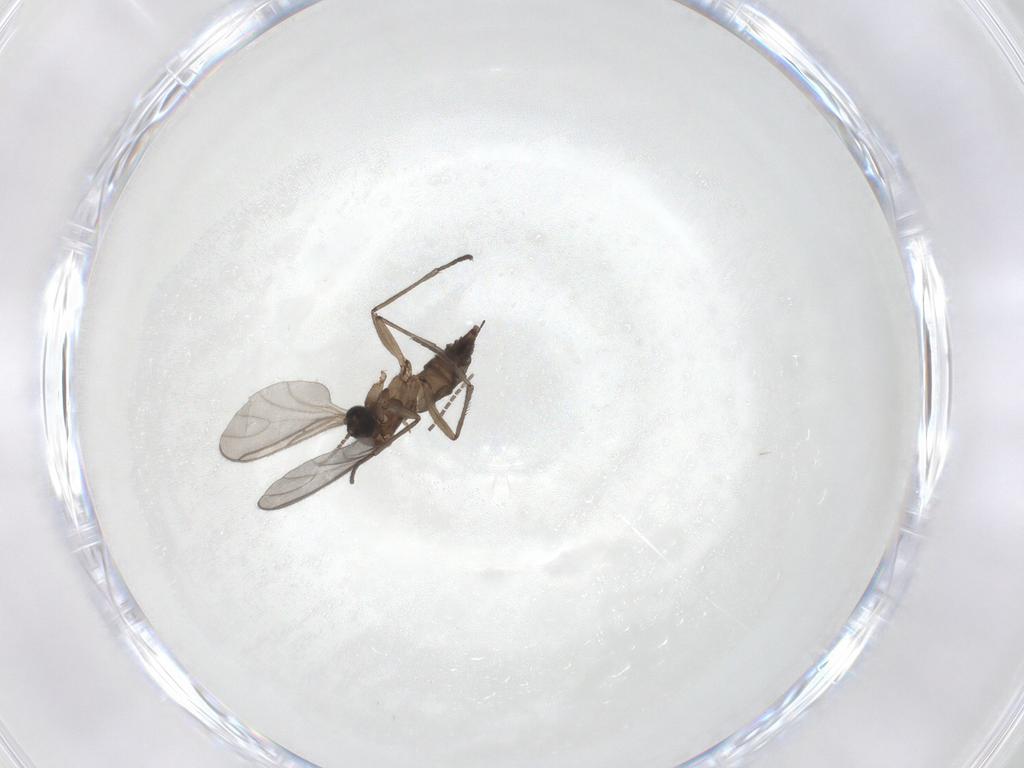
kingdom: Animalia
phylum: Arthropoda
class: Insecta
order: Diptera
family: Sciaridae
